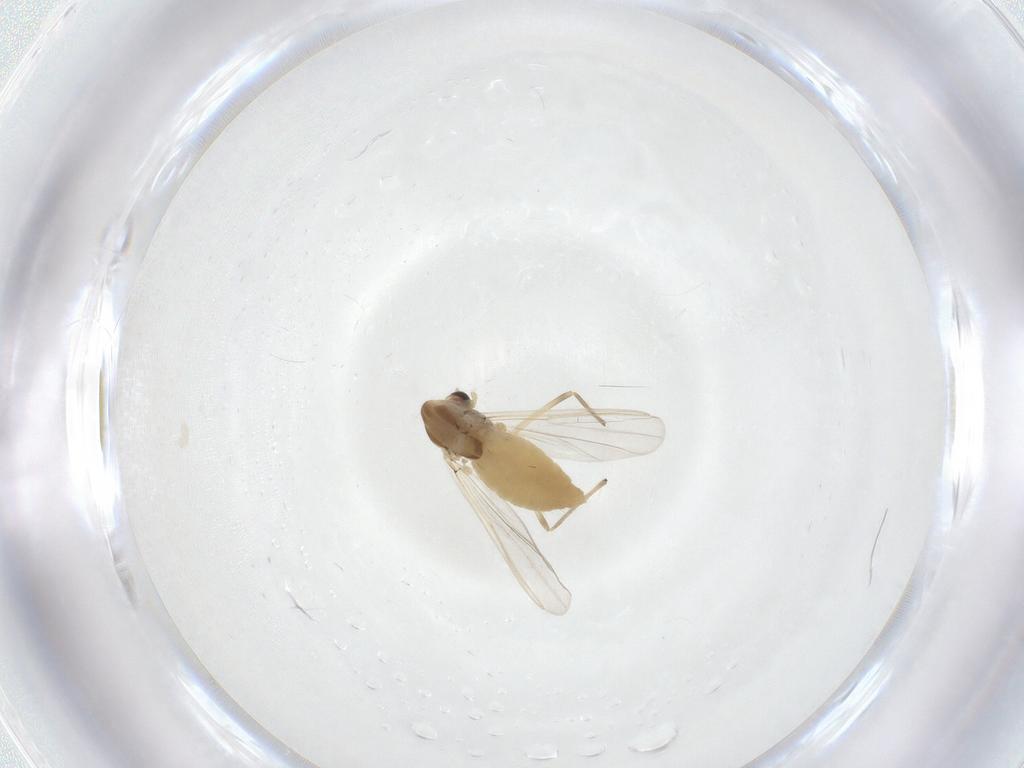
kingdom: Animalia
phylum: Arthropoda
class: Insecta
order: Diptera
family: Chironomidae
